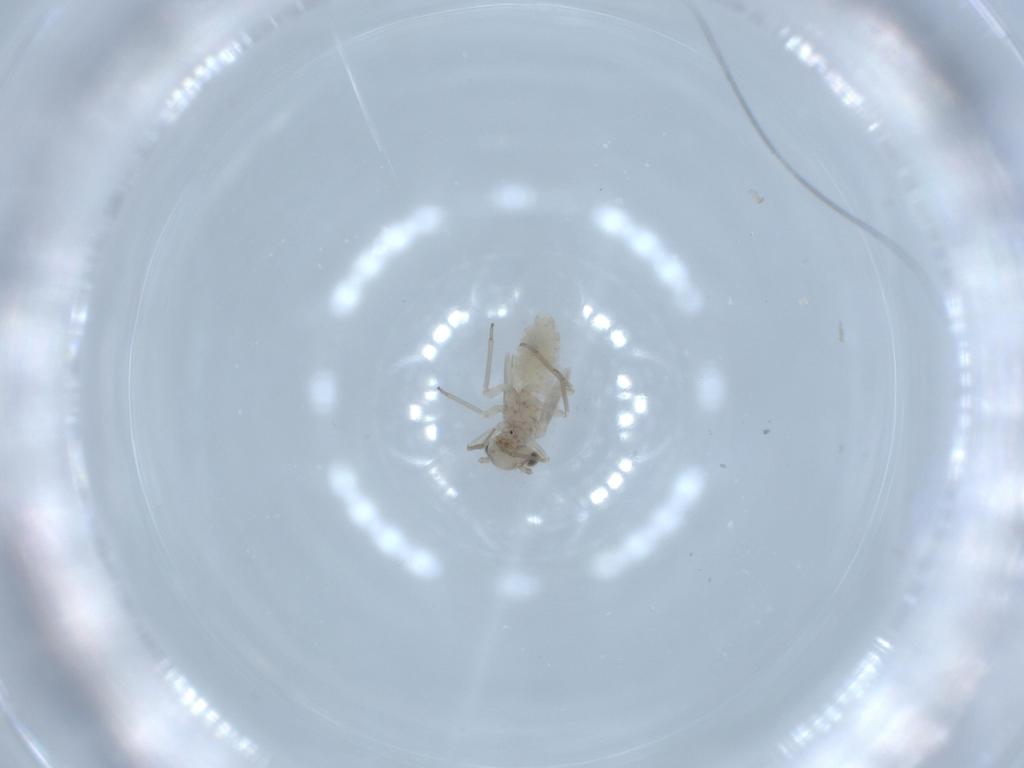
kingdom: Animalia
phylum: Arthropoda
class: Insecta
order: Psocodea
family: Lachesillidae
